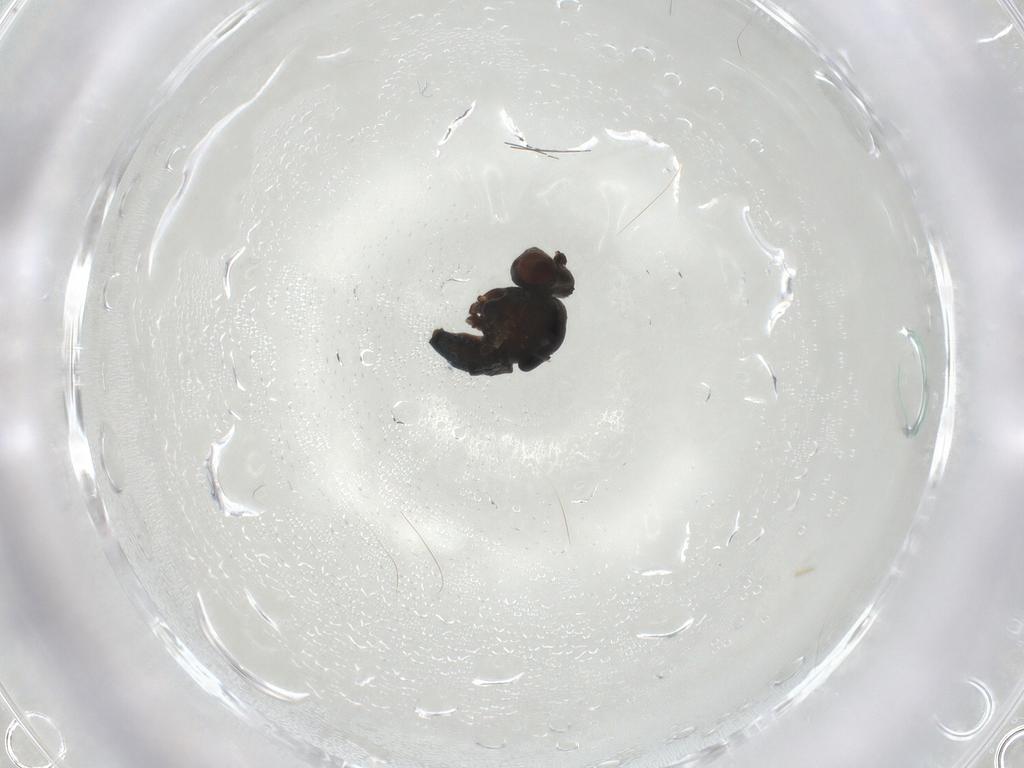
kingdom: Animalia
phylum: Arthropoda
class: Insecta
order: Diptera
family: Ephydridae
